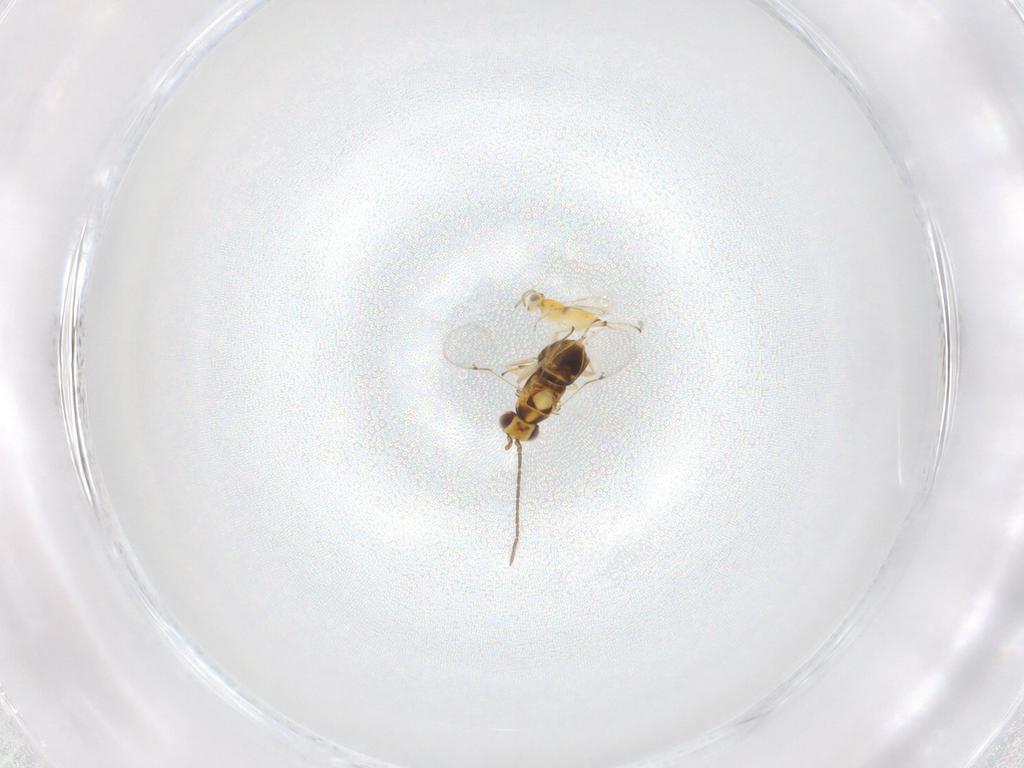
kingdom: Animalia
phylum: Arthropoda
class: Insecta
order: Hymenoptera
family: Encyrtidae
